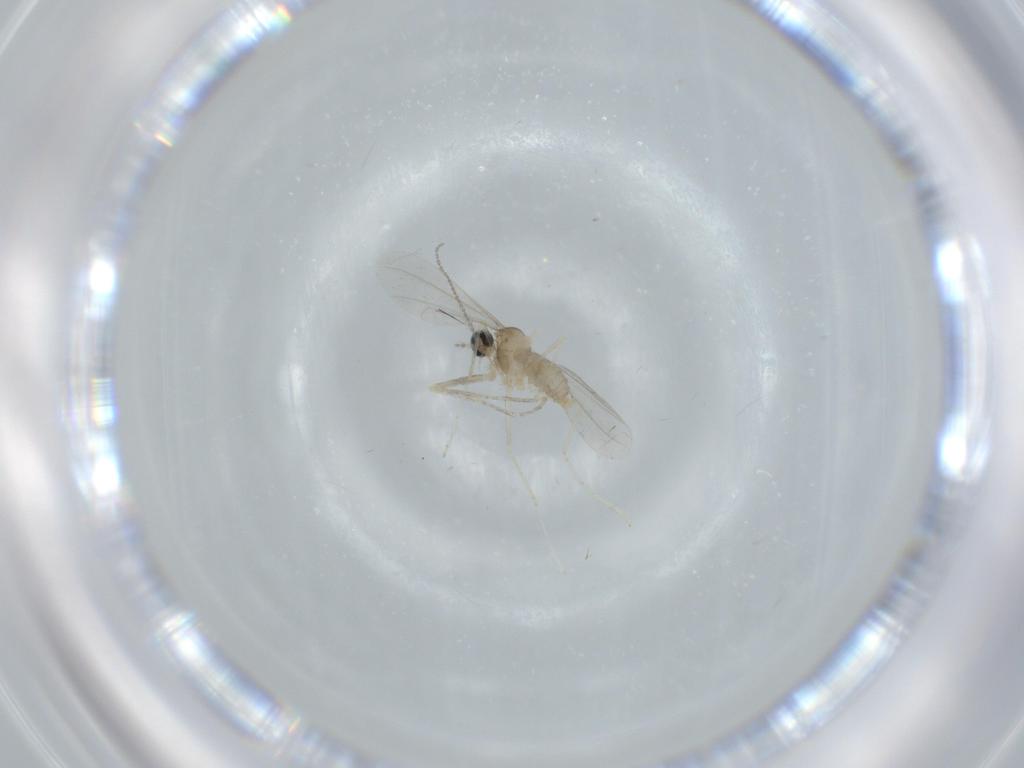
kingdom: Animalia
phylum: Arthropoda
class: Insecta
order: Diptera
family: Cecidomyiidae
